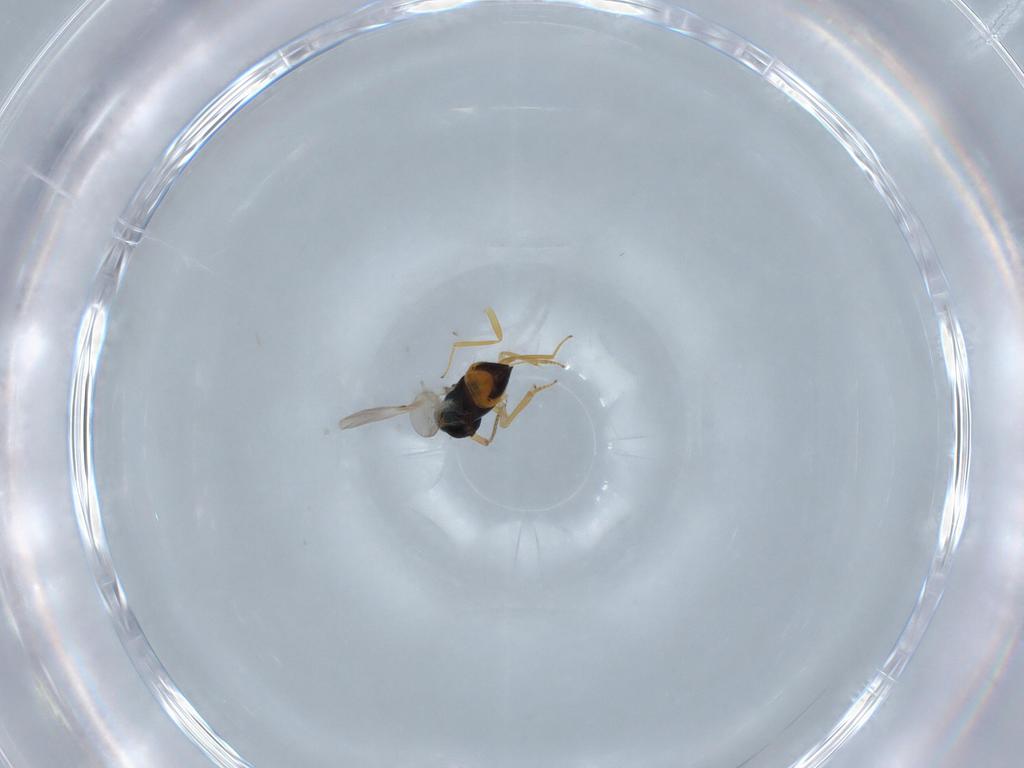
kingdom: Animalia
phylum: Arthropoda
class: Insecta
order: Hymenoptera
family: Encyrtidae
